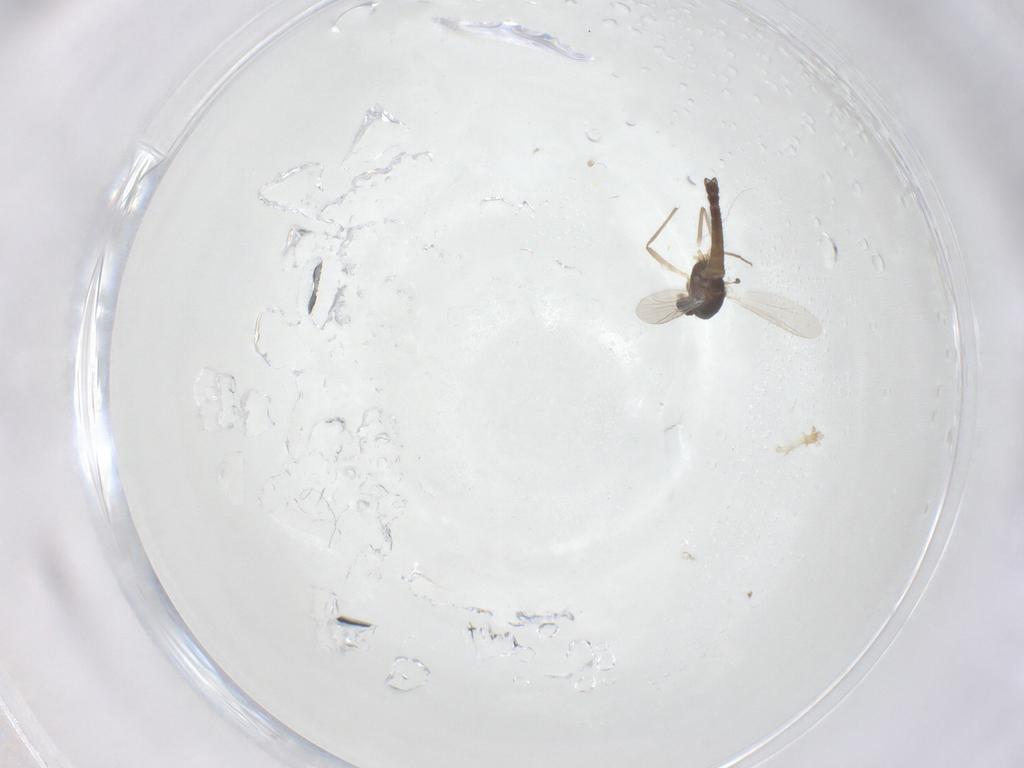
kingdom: Animalia
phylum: Arthropoda
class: Insecta
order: Diptera
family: Chironomidae
